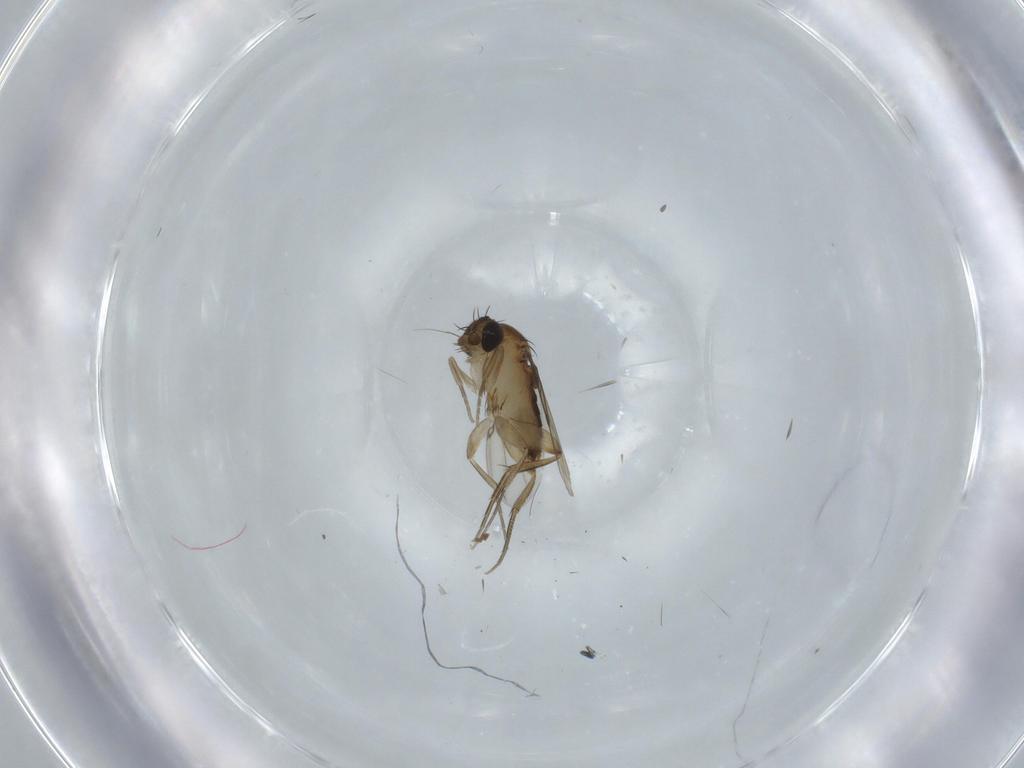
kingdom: Animalia
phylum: Arthropoda
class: Insecta
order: Diptera
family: Phoridae
